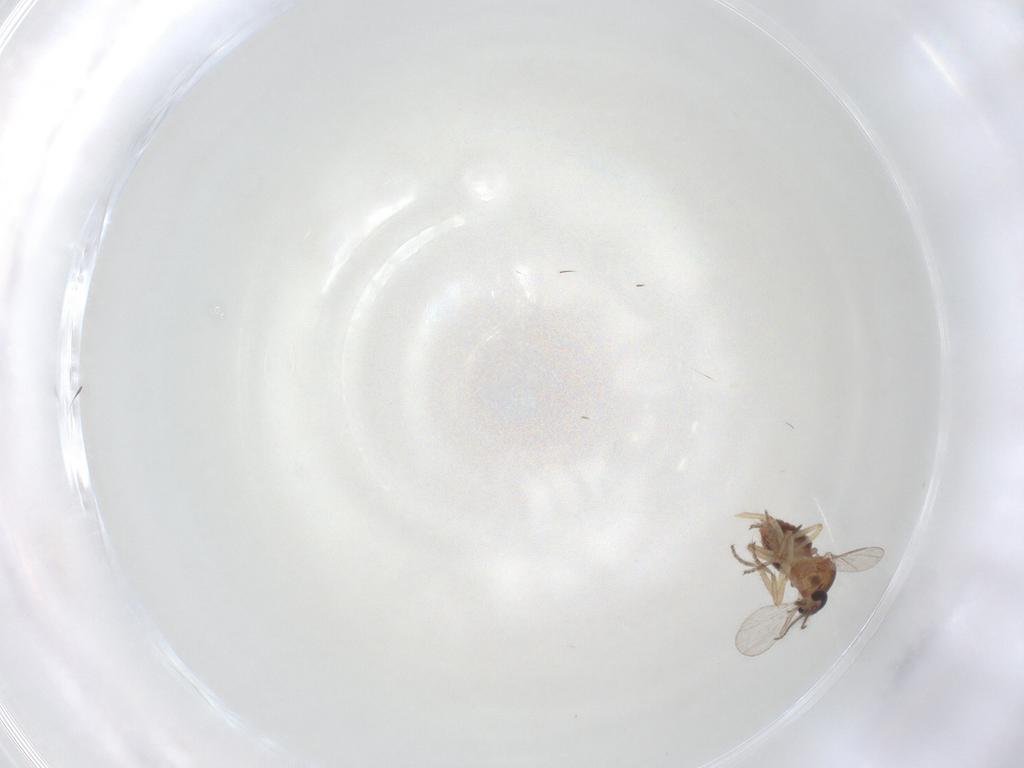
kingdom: Animalia
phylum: Arthropoda
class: Insecta
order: Diptera
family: Ceratopogonidae
